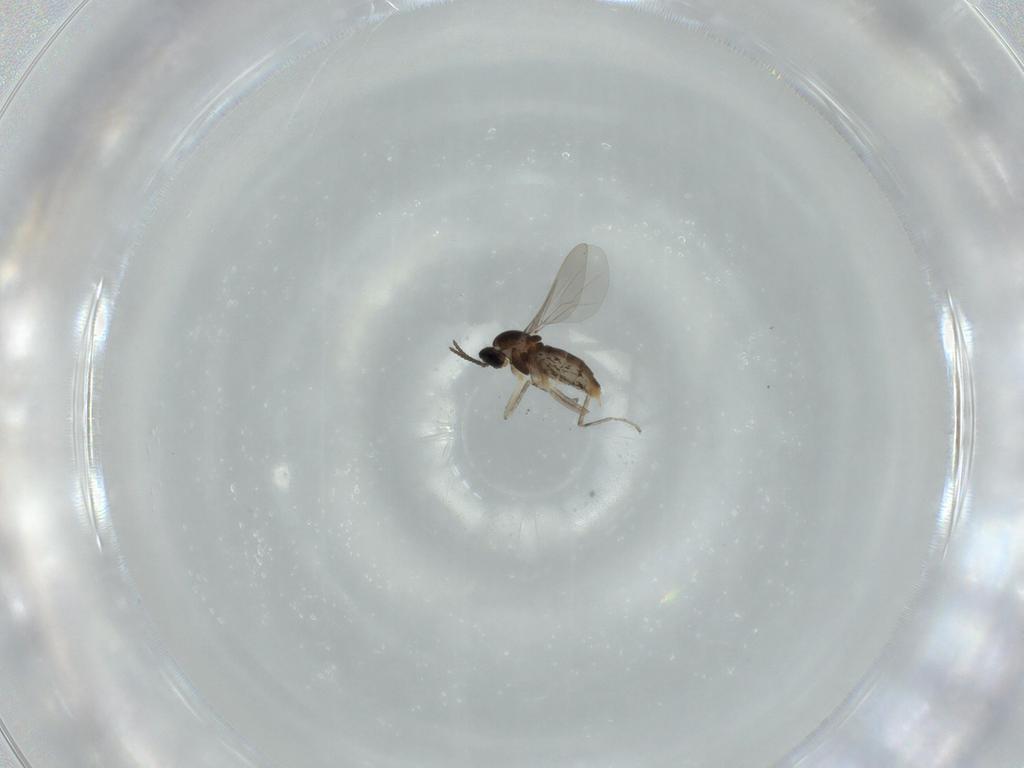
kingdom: Animalia
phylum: Arthropoda
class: Insecta
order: Diptera
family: Cecidomyiidae
